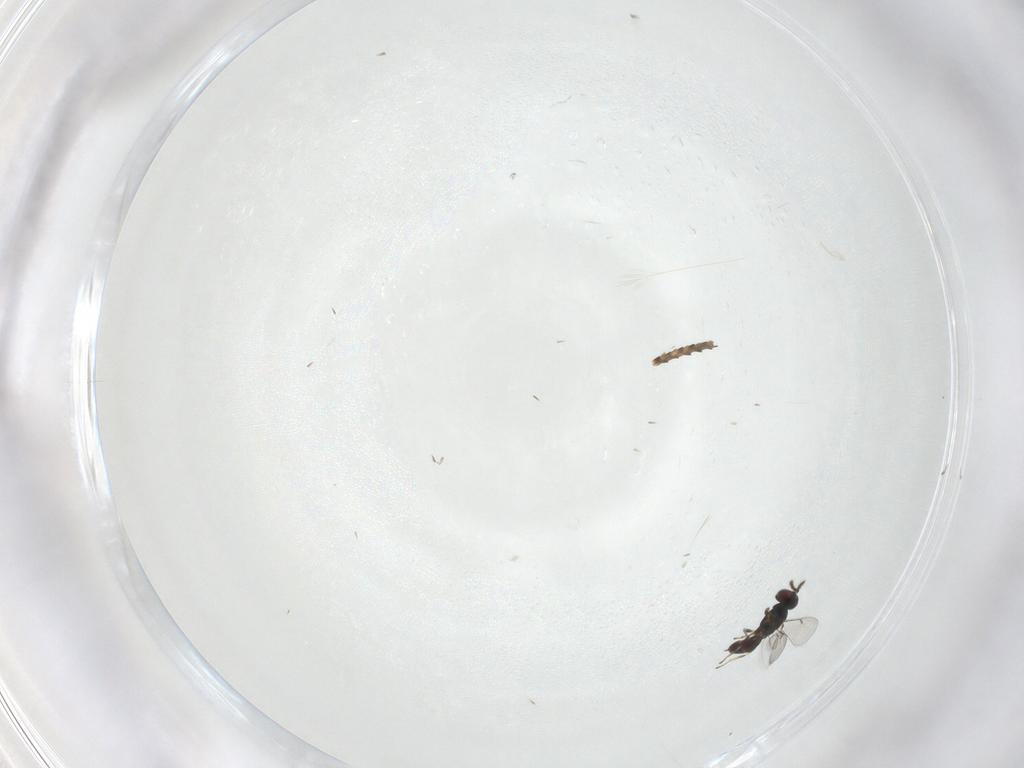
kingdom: Animalia
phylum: Arthropoda
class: Insecta
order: Hymenoptera
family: Eulophidae
